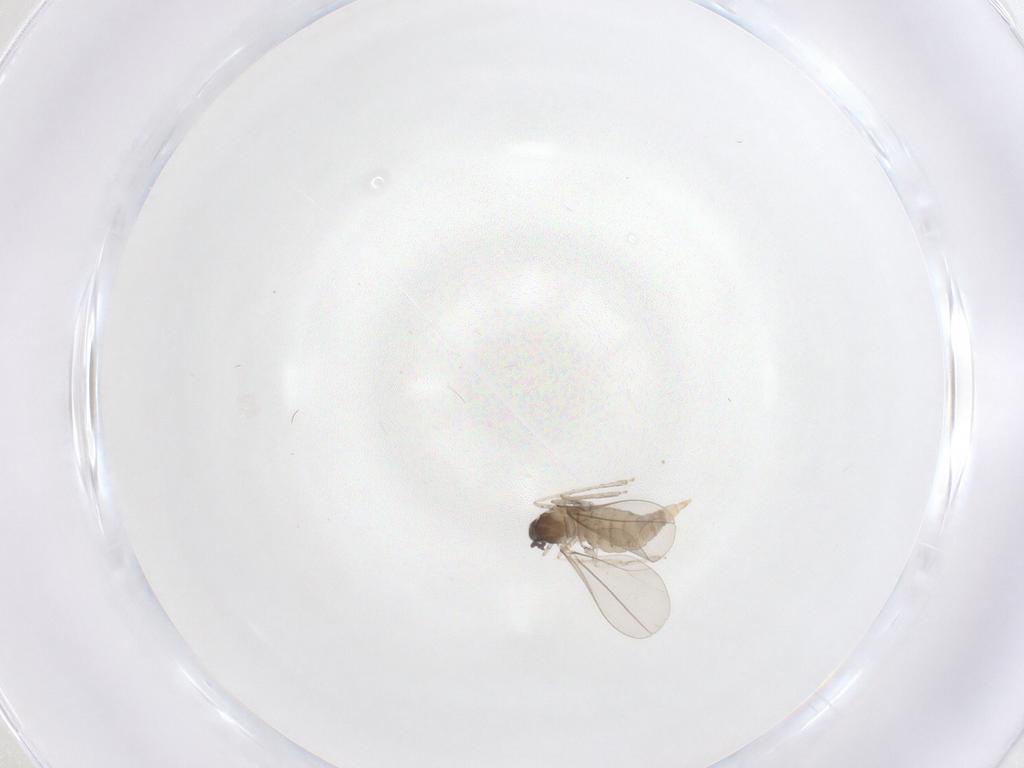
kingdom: Animalia
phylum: Arthropoda
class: Insecta
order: Diptera
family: Cecidomyiidae
